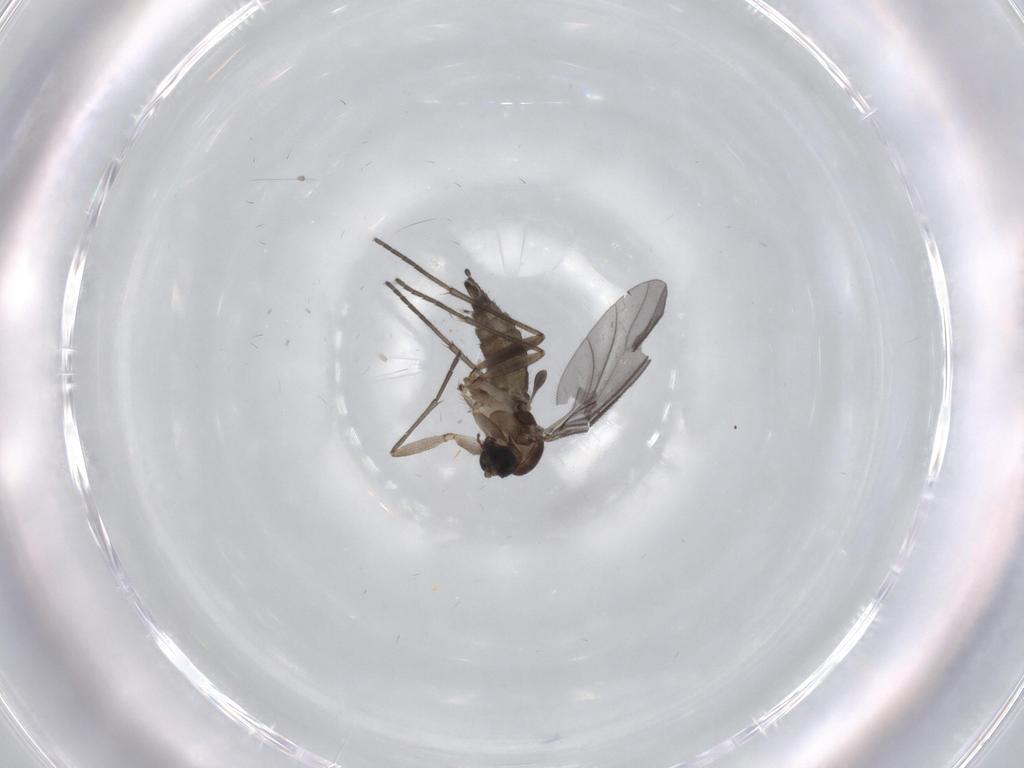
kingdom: Animalia
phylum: Arthropoda
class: Insecta
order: Diptera
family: Sciaridae
